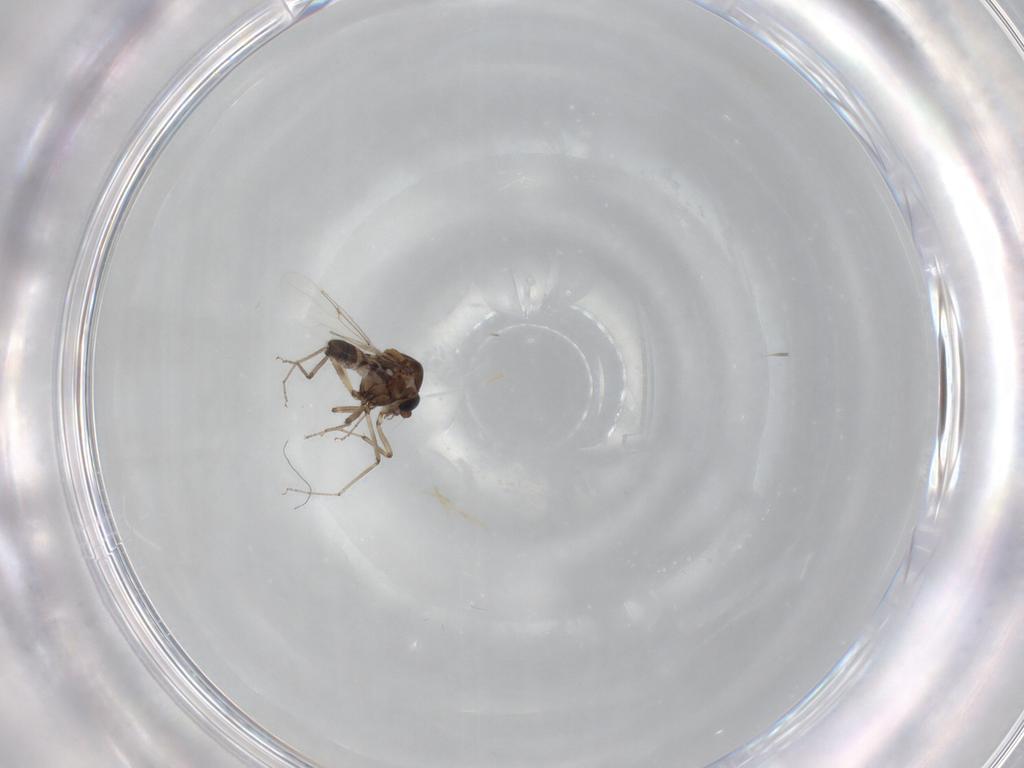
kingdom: Animalia
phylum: Arthropoda
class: Insecta
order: Diptera
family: Ceratopogonidae
